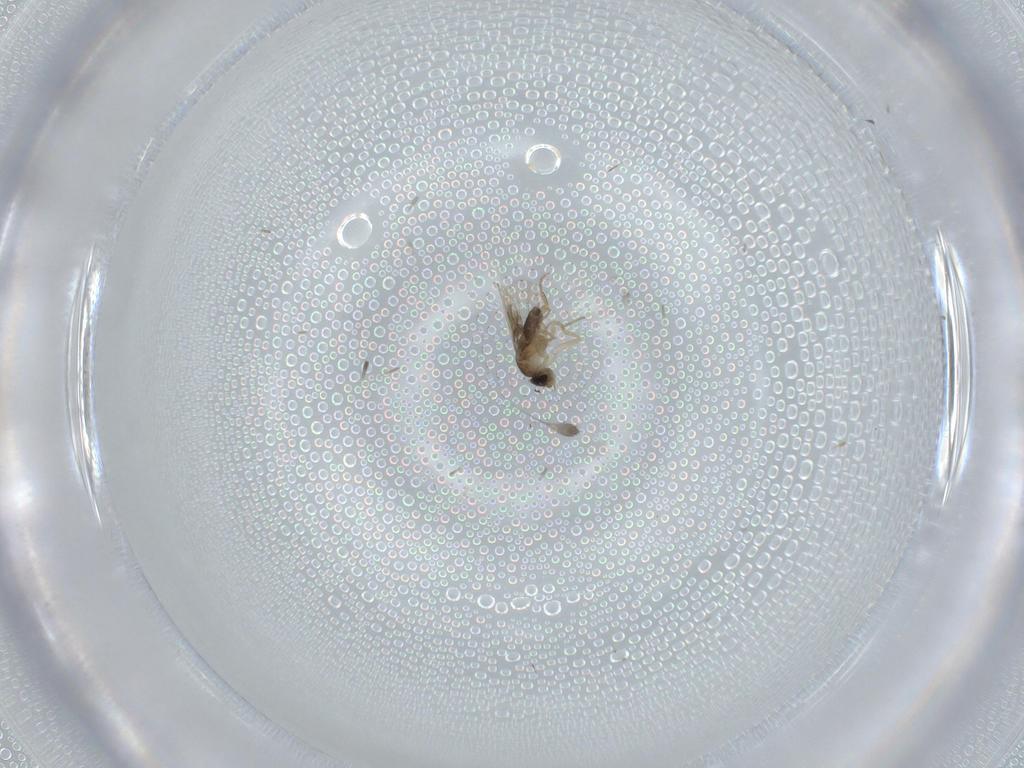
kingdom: Animalia
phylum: Arthropoda
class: Insecta
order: Diptera
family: Phoridae
